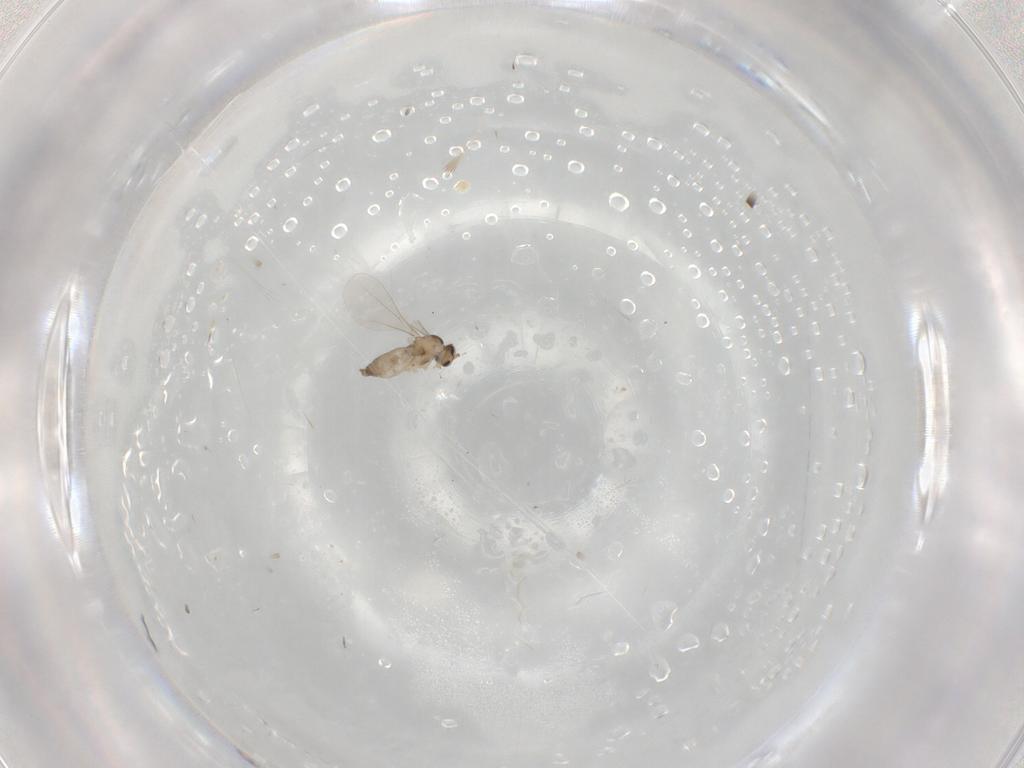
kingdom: Animalia
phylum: Arthropoda
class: Insecta
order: Diptera
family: Cecidomyiidae
